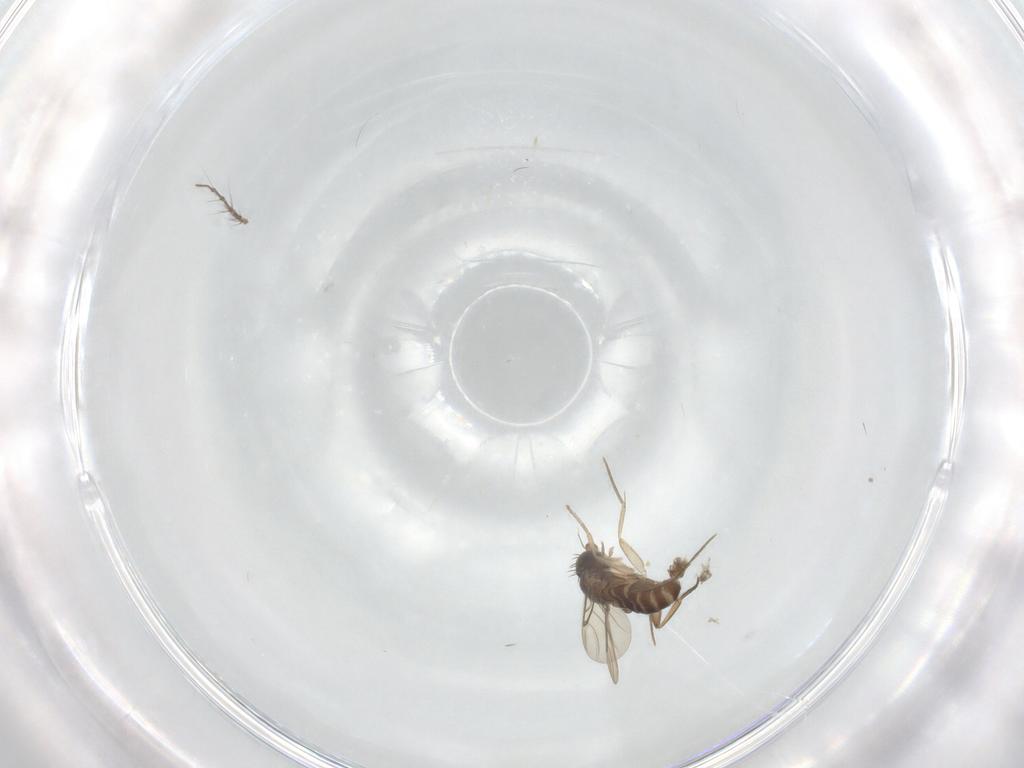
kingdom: Animalia
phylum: Arthropoda
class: Insecta
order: Diptera
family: Phoridae
